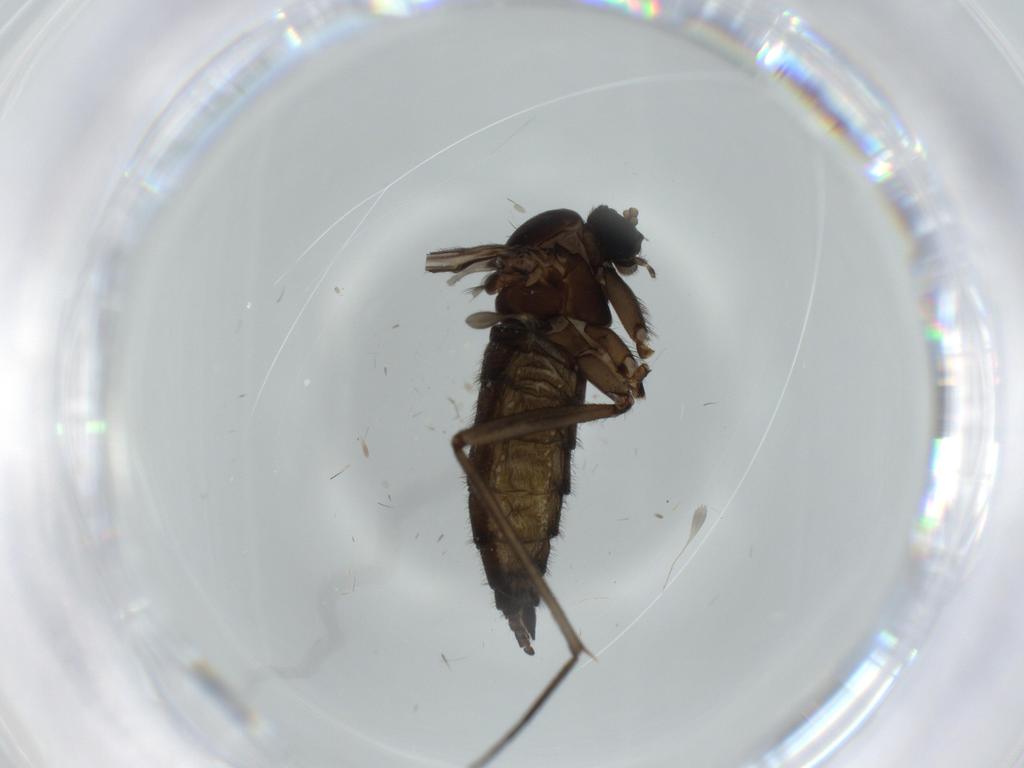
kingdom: Animalia
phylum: Arthropoda
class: Insecta
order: Diptera
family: Sciaridae
